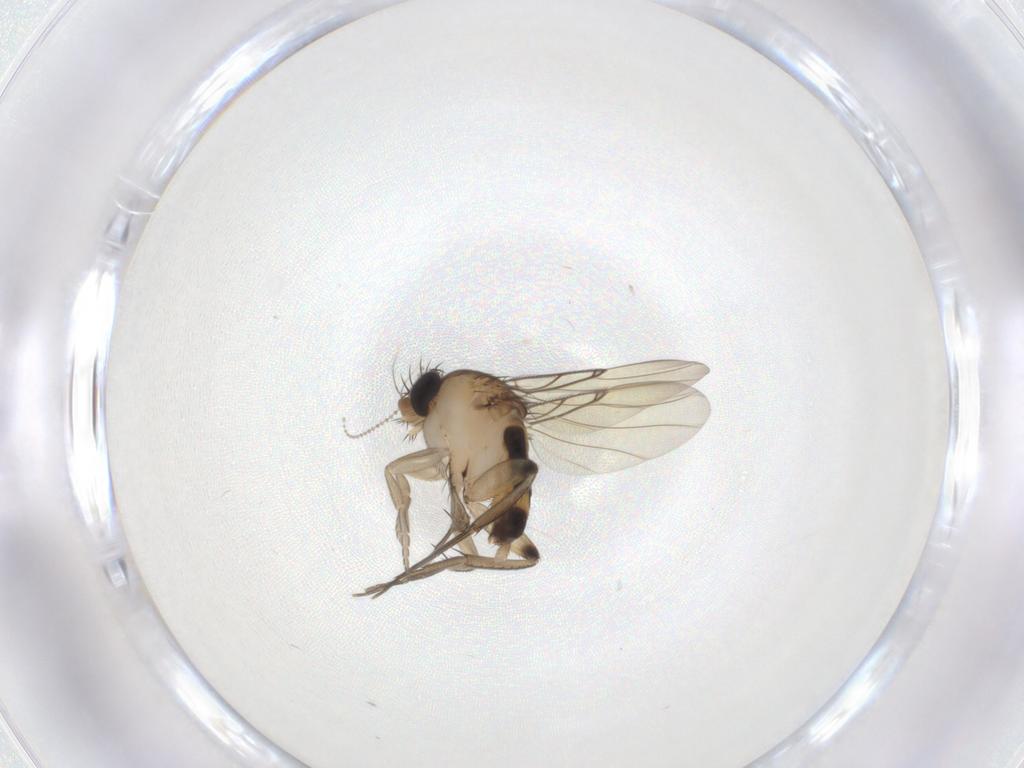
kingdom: Animalia
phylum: Arthropoda
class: Insecta
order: Diptera
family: Phoridae
